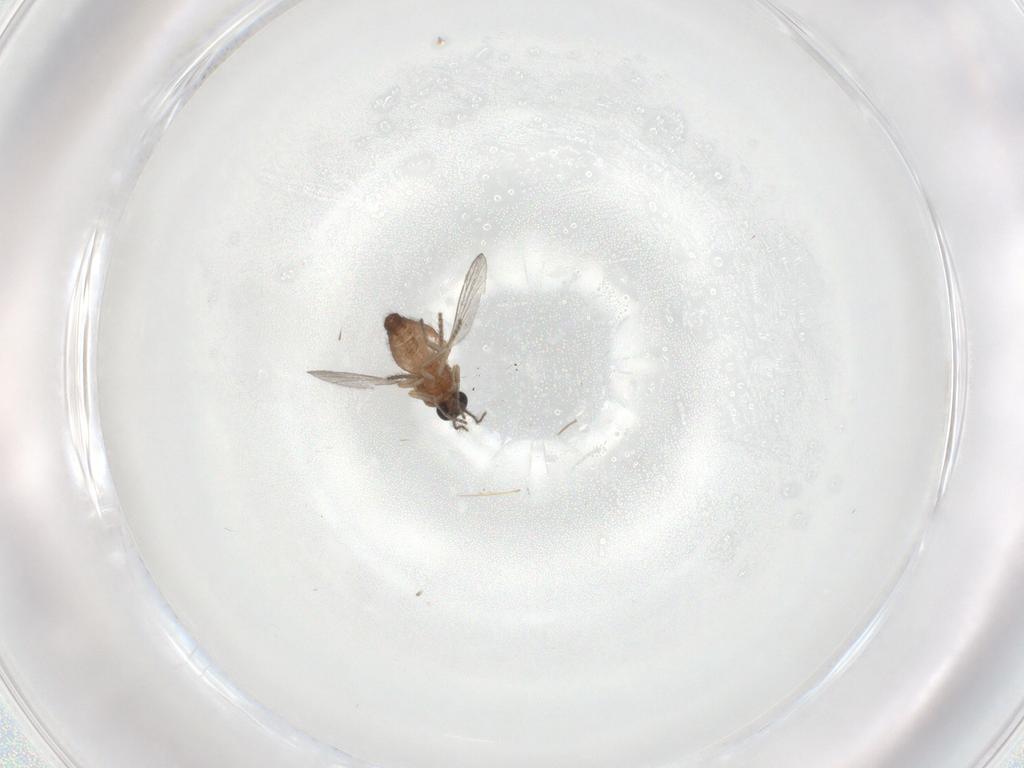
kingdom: Animalia
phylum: Arthropoda
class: Insecta
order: Diptera
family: Ceratopogonidae
